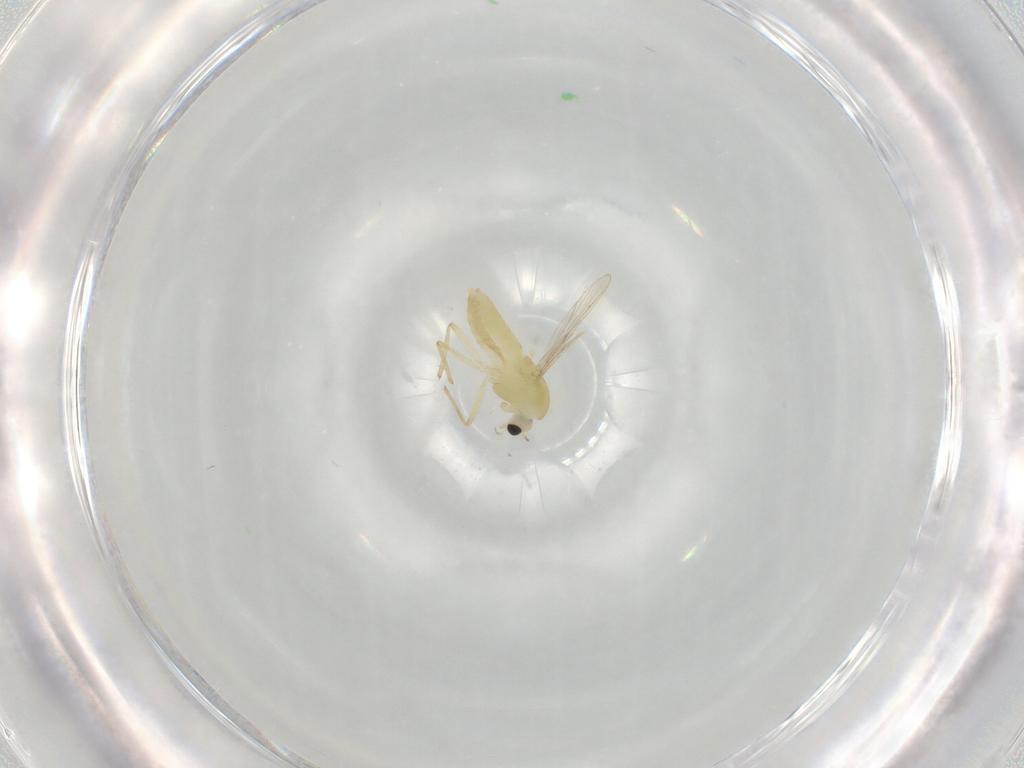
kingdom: Animalia
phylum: Arthropoda
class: Insecta
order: Diptera
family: Chironomidae
